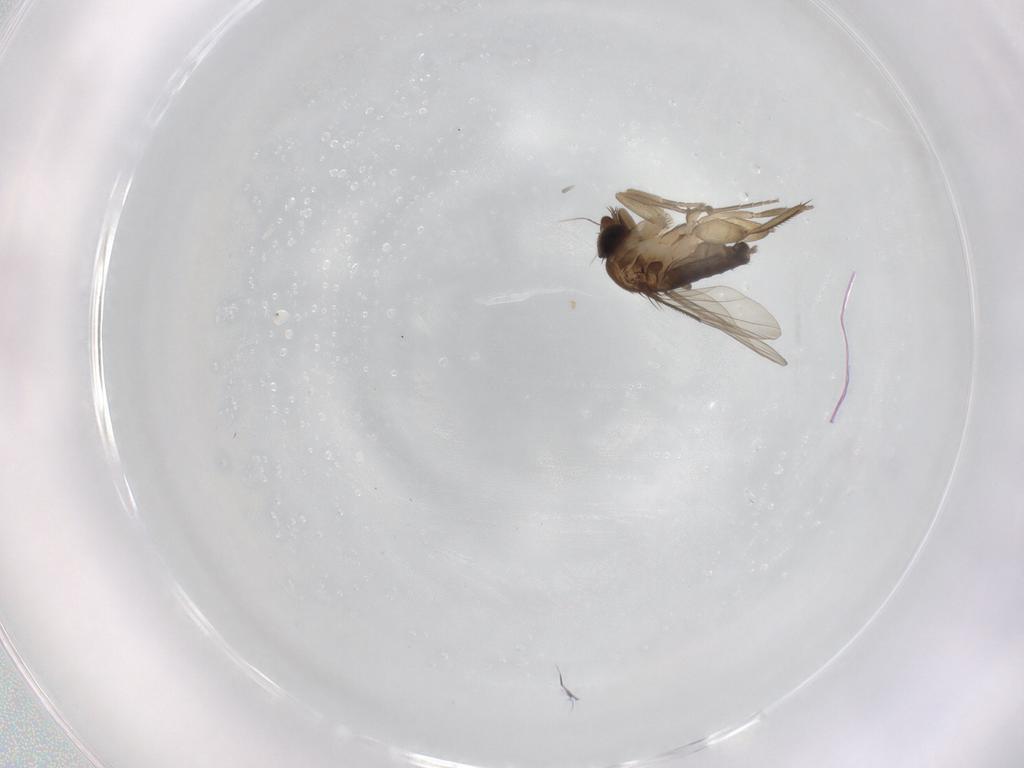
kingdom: Animalia
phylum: Arthropoda
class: Insecta
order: Diptera
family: Phoridae
